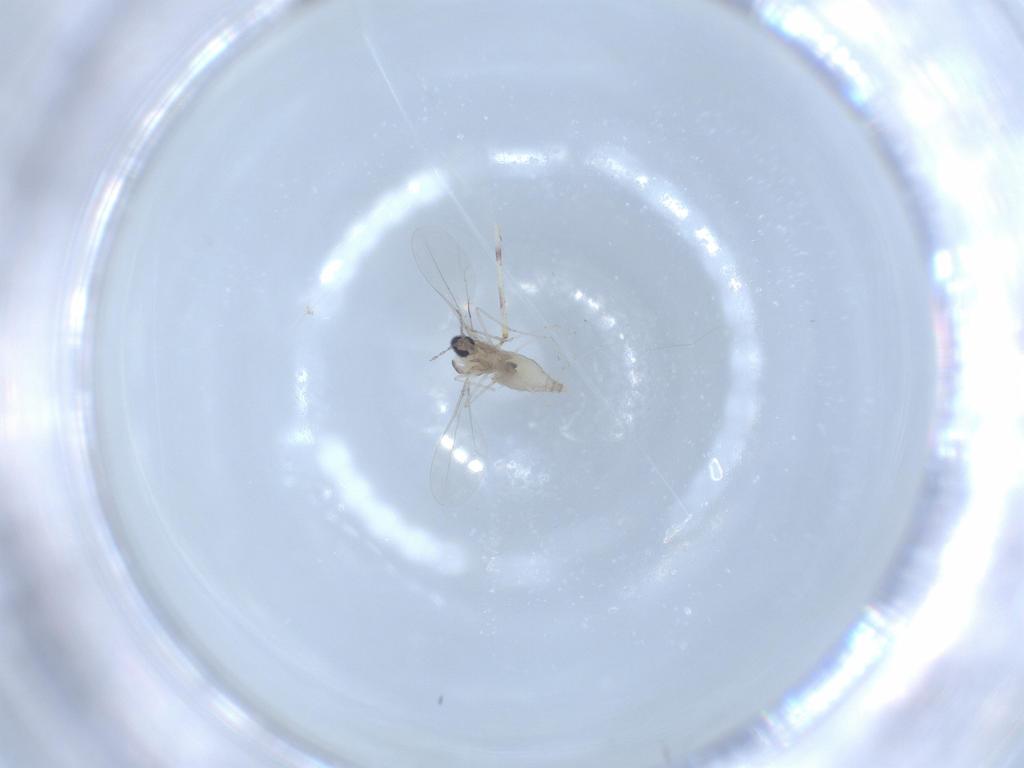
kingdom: Animalia
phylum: Arthropoda
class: Insecta
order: Diptera
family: Cecidomyiidae
